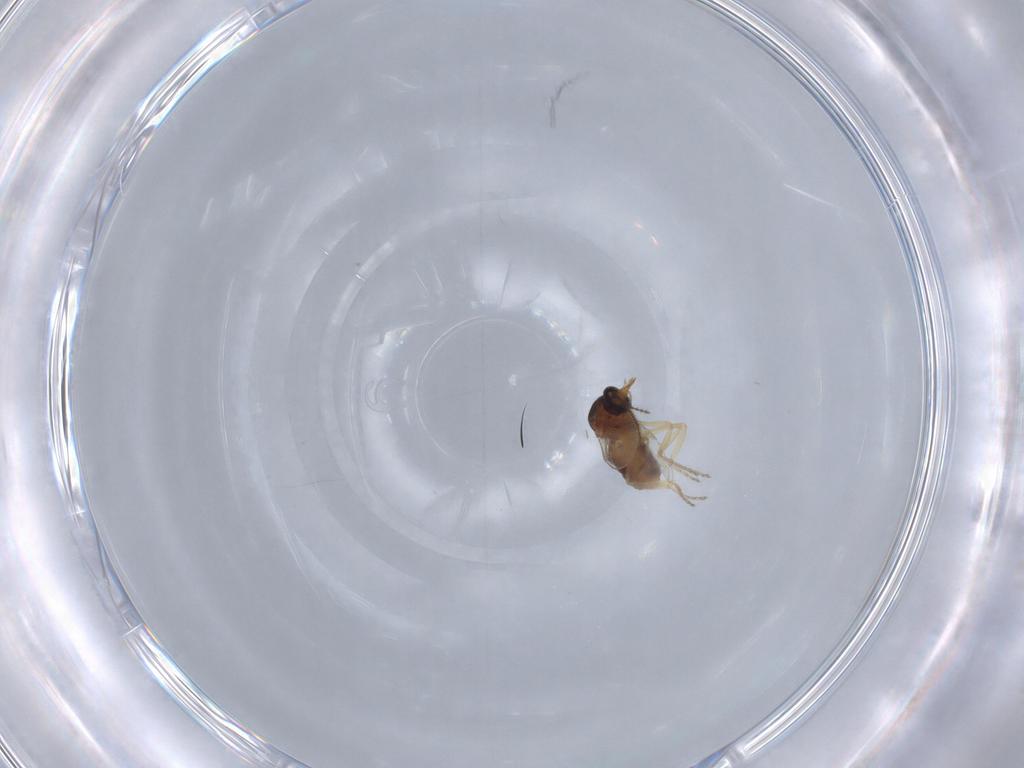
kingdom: Animalia
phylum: Arthropoda
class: Insecta
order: Diptera
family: Ceratopogonidae
